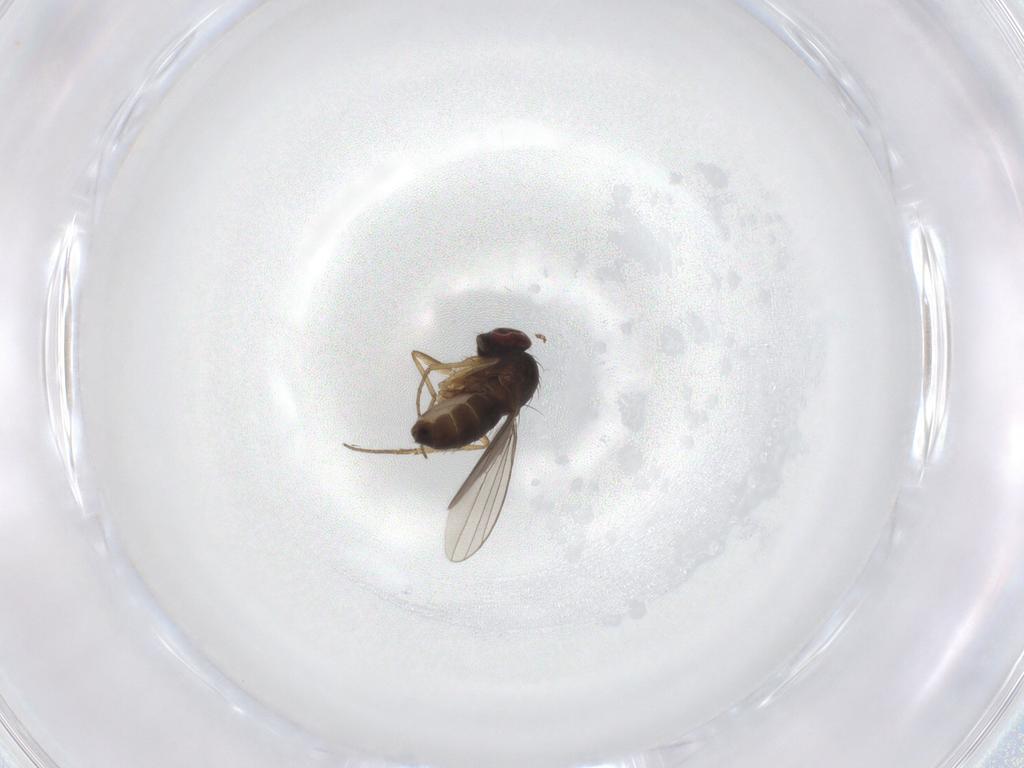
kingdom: Animalia
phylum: Arthropoda
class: Insecta
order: Diptera
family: Dolichopodidae
